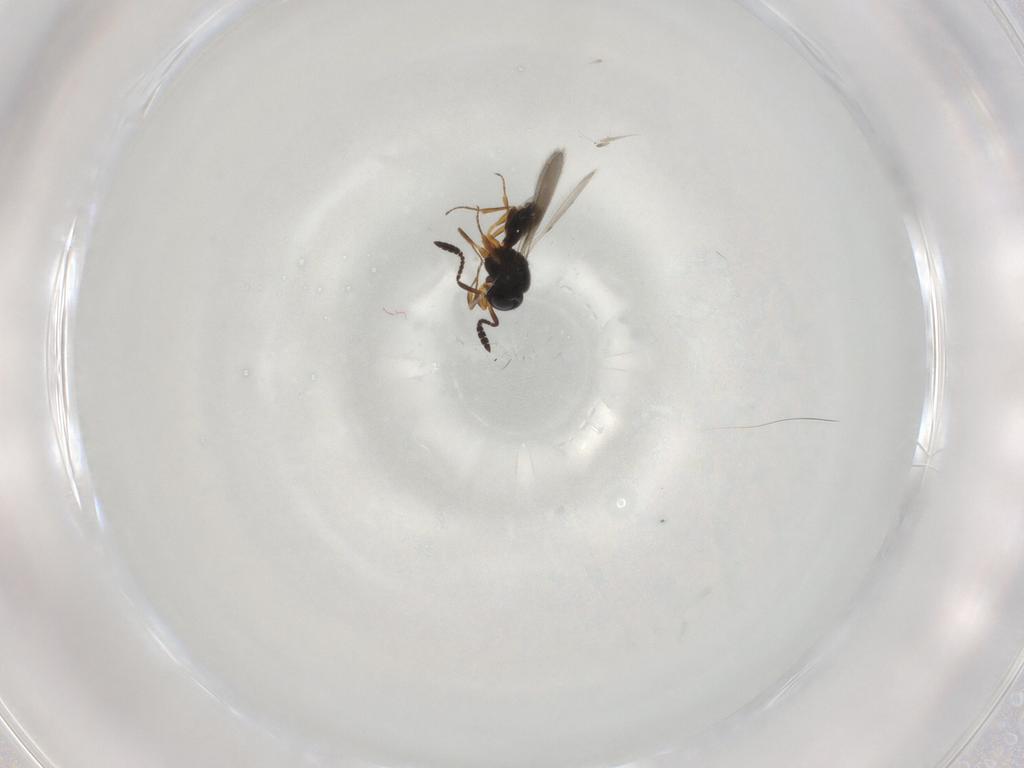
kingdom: Animalia
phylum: Arthropoda
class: Insecta
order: Hymenoptera
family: Scelionidae
